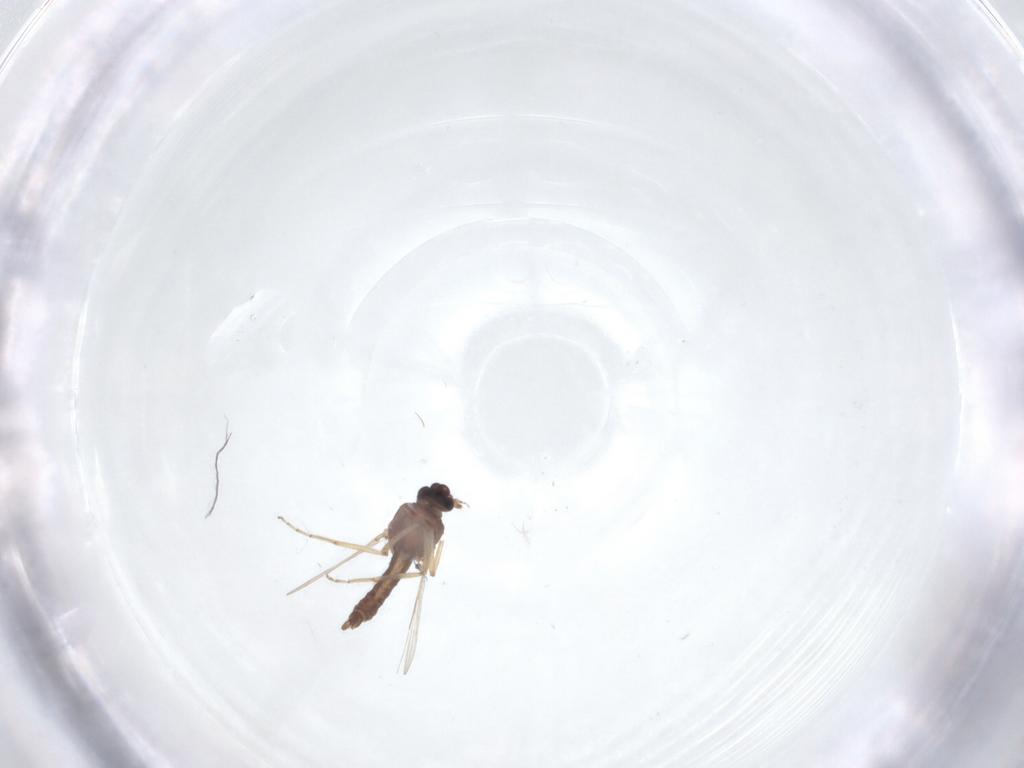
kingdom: Animalia
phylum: Arthropoda
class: Insecta
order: Diptera
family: Ceratopogonidae
